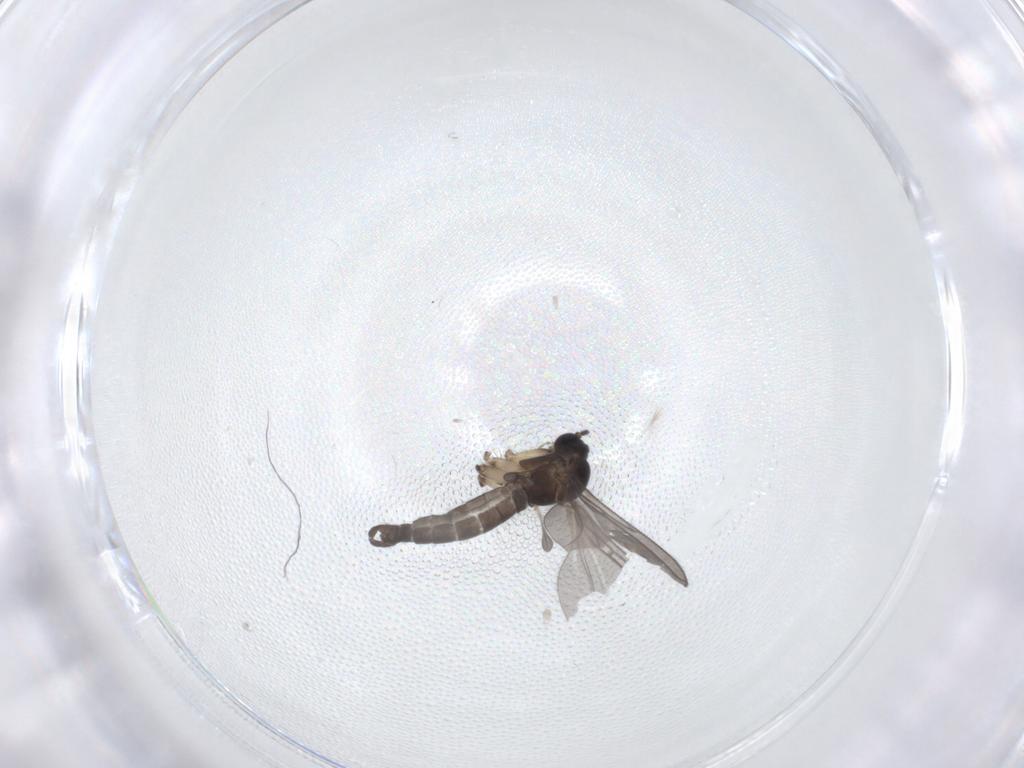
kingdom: Animalia
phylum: Arthropoda
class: Insecta
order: Diptera
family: Sciaridae
